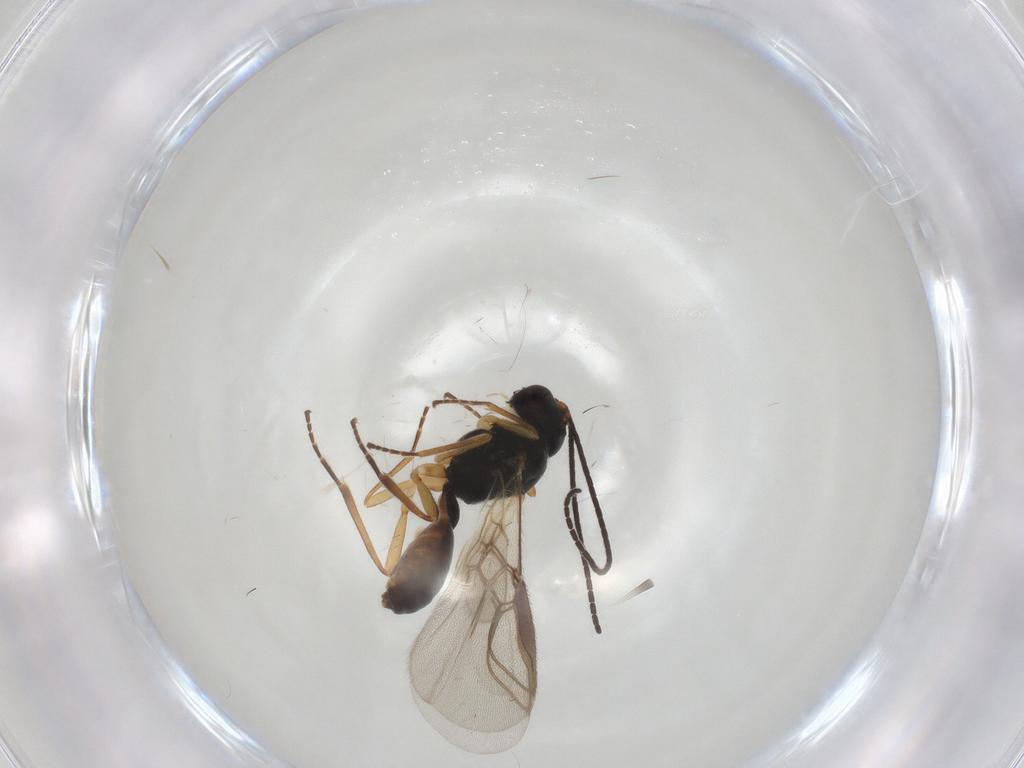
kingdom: Animalia
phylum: Arthropoda
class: Insecta
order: Hymenoptera
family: Braconidae
